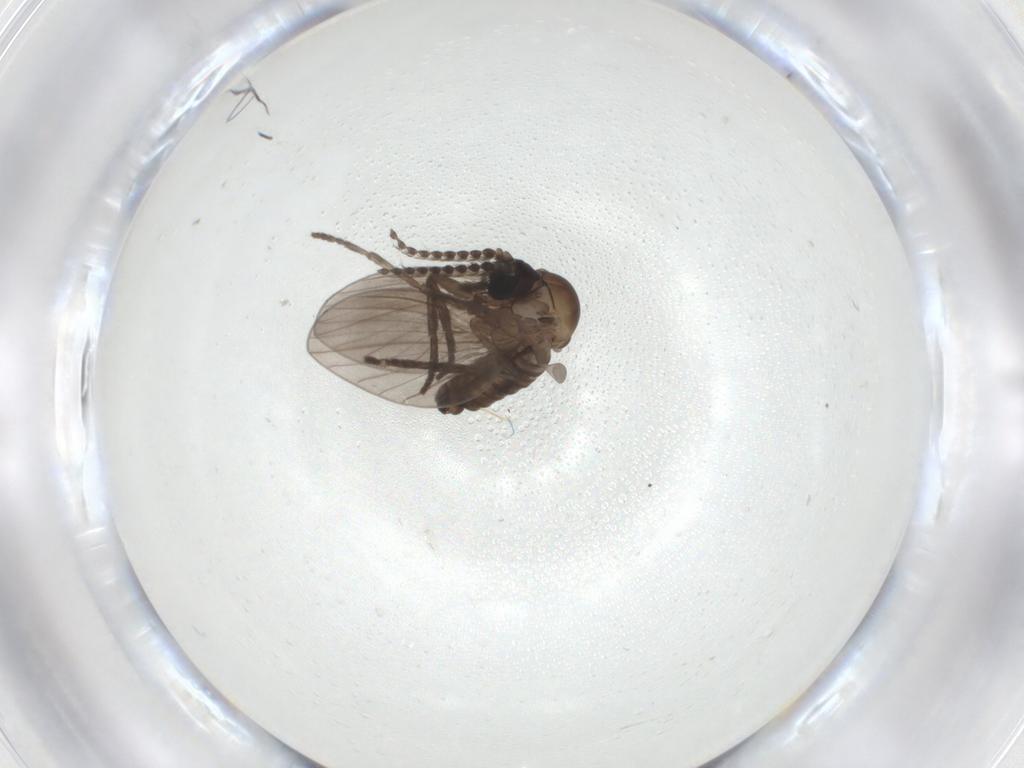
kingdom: Animalia
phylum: Arthropoda
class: Insecta
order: Diptera
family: Psychodidae
